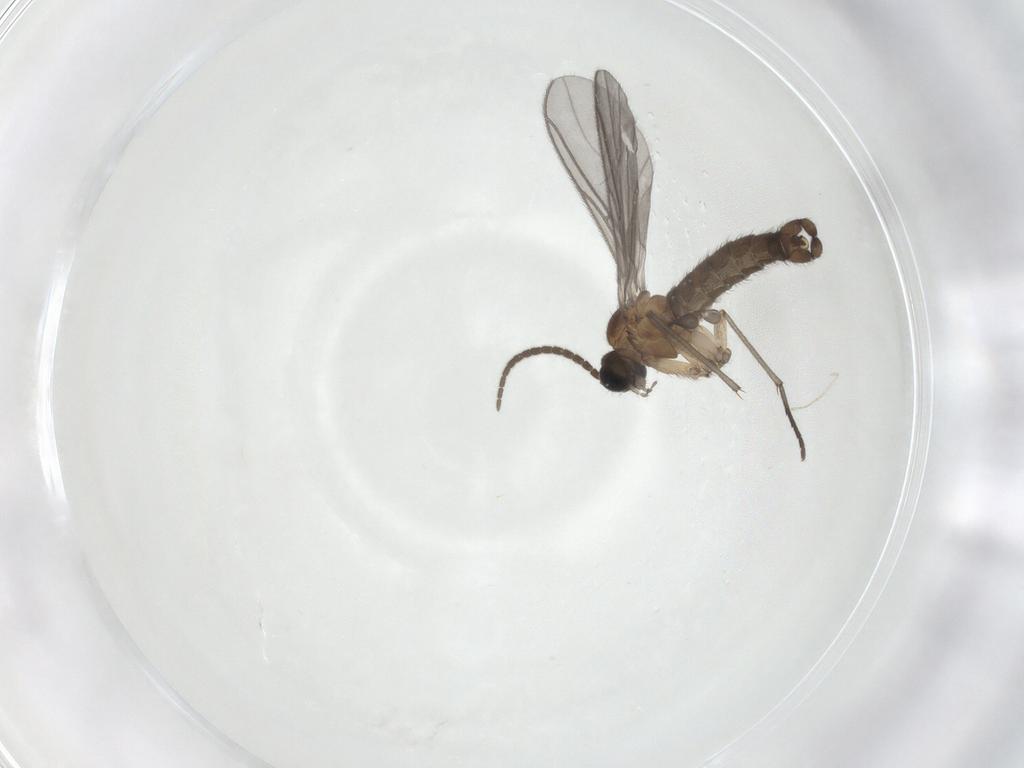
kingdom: Animalia
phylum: Arthropoda
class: Insecta
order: Diptera
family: Sciaridae
